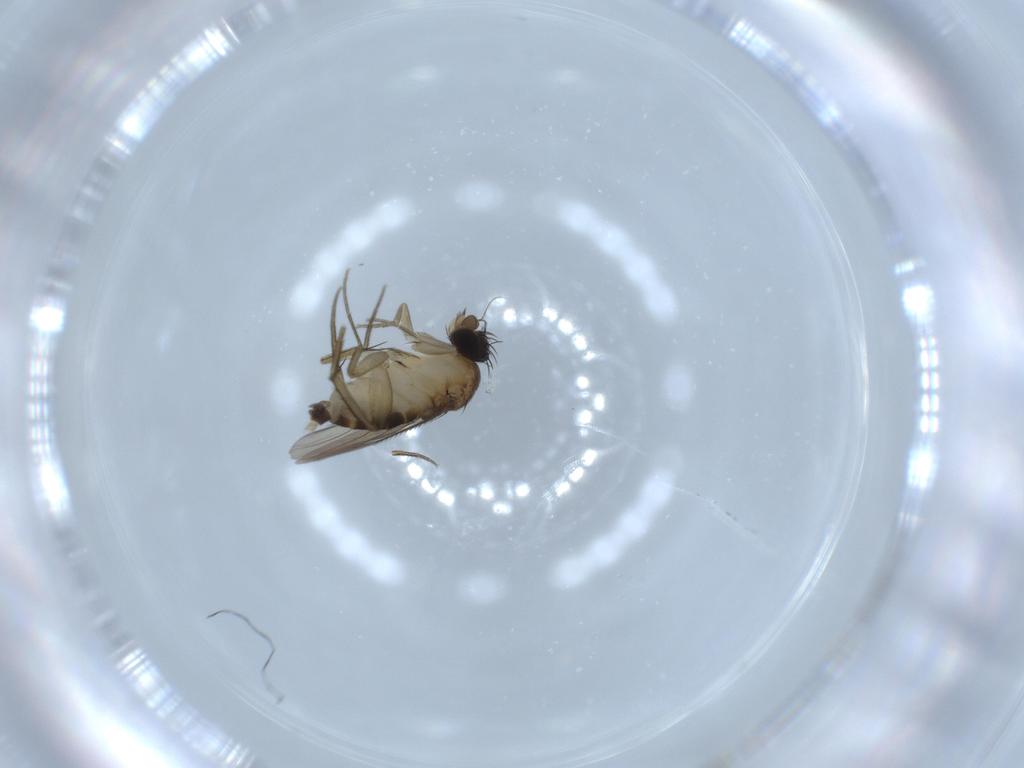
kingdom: Animalia
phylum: Arthropoda
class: Insecta
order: Diptera
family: Phoridae
